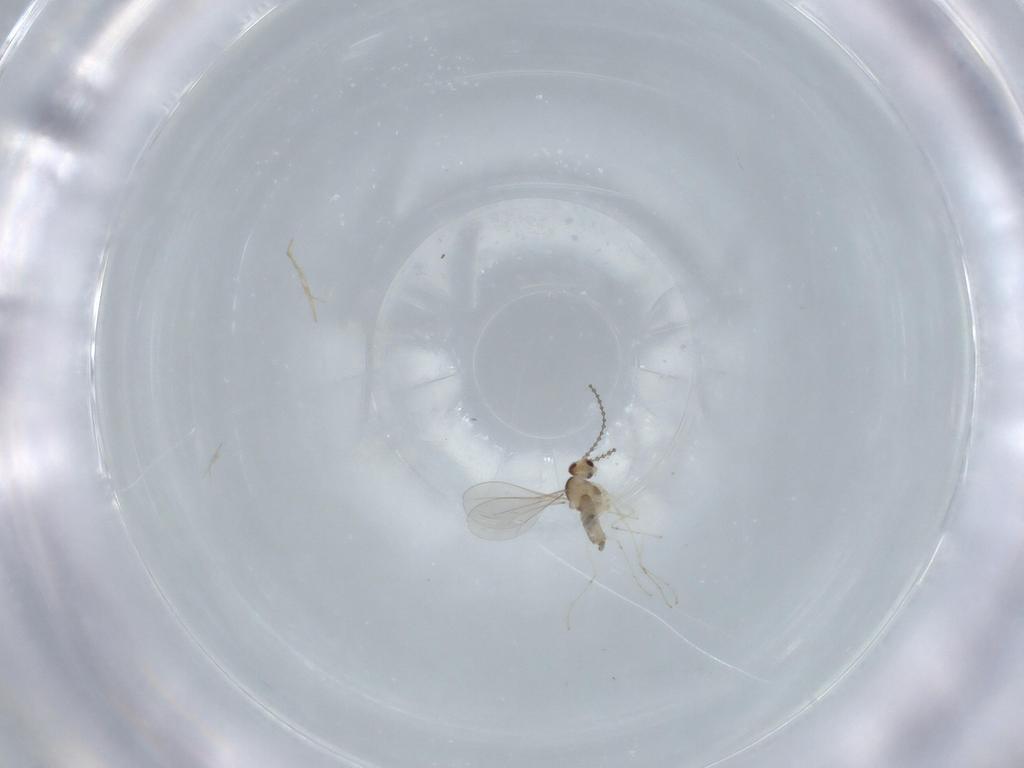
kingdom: Animalia
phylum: Arthropoda
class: Insecta
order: Diptera
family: Cecidomyiidae
